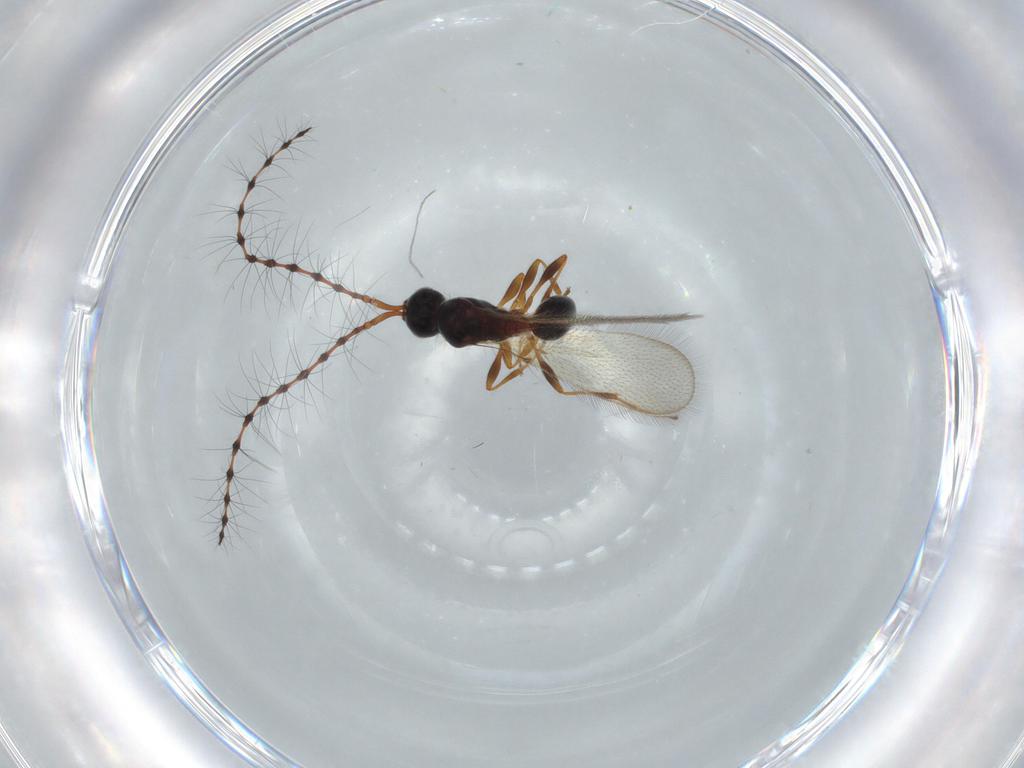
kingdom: Animalia
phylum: Arthropoda
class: Insecta
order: Hymenoptera
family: Diapriidae
